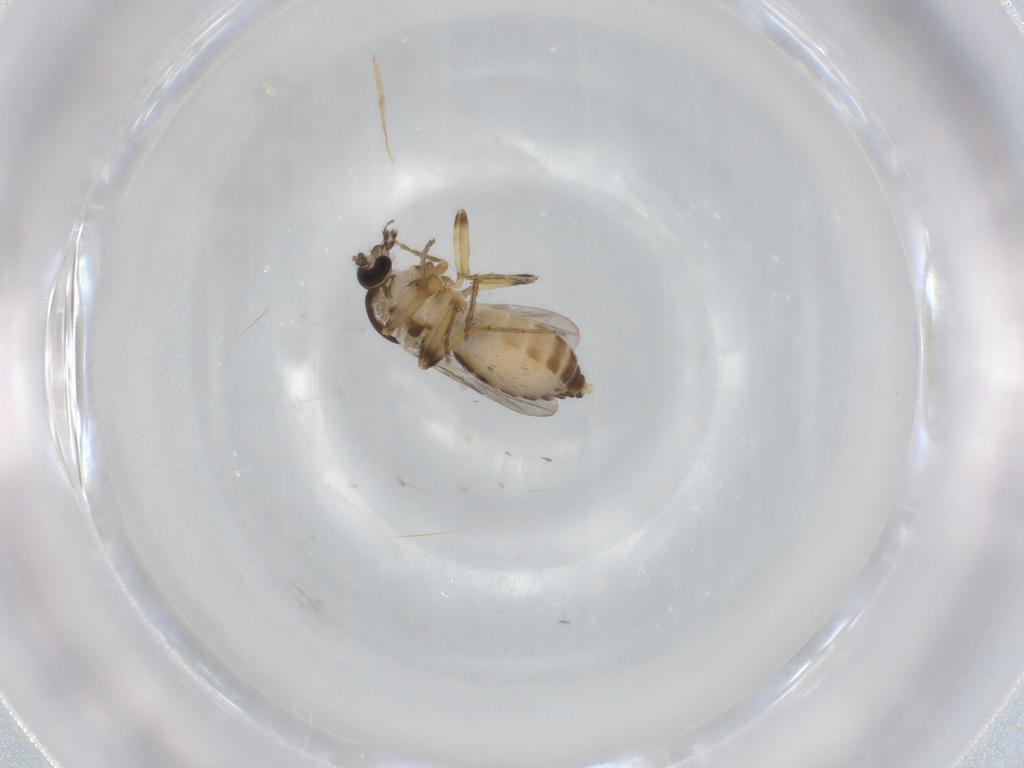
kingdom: Animalia
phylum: Arthropoda
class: Insecta
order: Diptera
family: Ceratopogonidae
